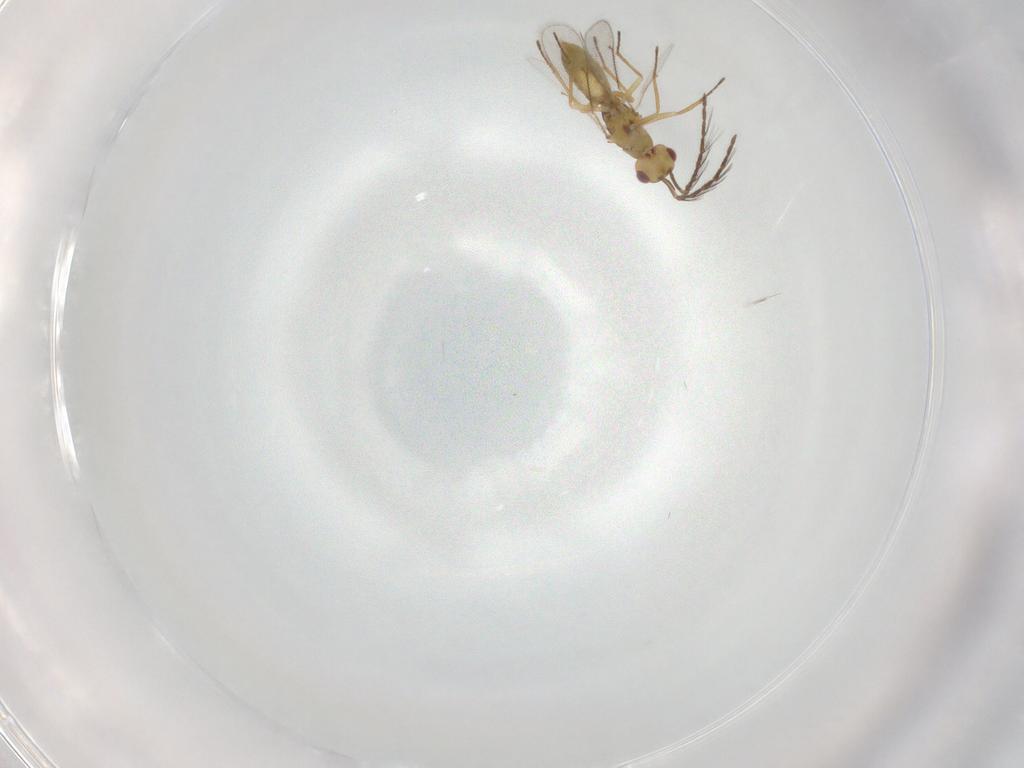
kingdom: Animalia
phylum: Arthropoda
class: Insecta
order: Hymenoptera
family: Eulophidae
